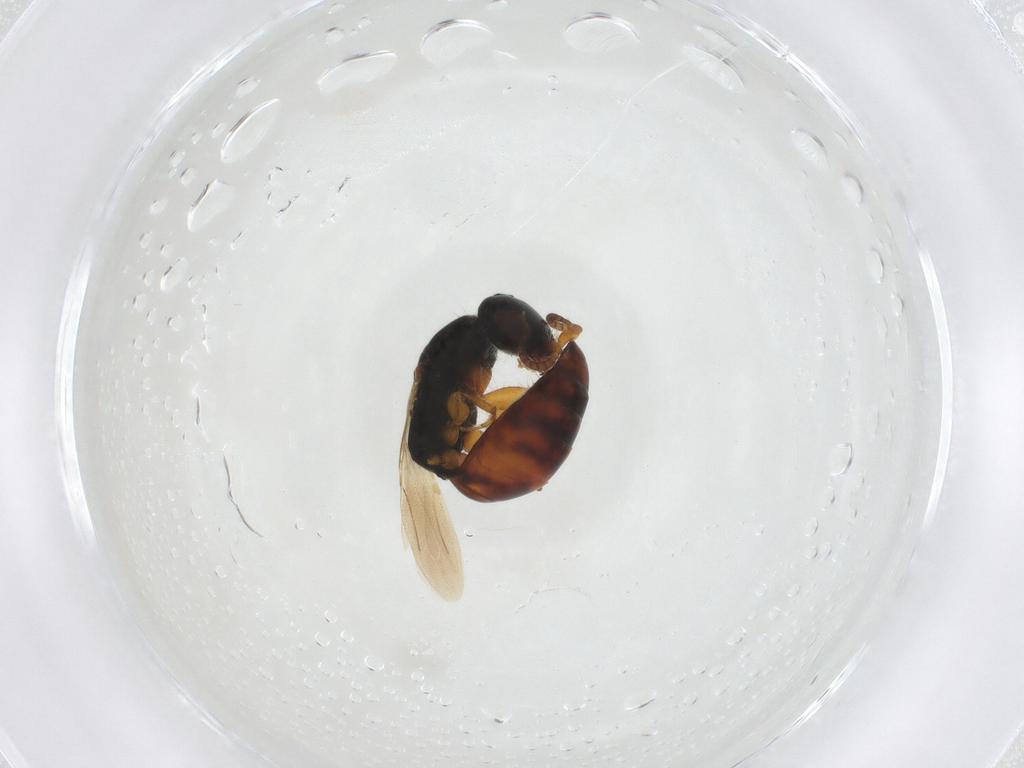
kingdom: Animalia
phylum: Arthropoda
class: Insecta
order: Hymenoptera
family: Bethylidae
